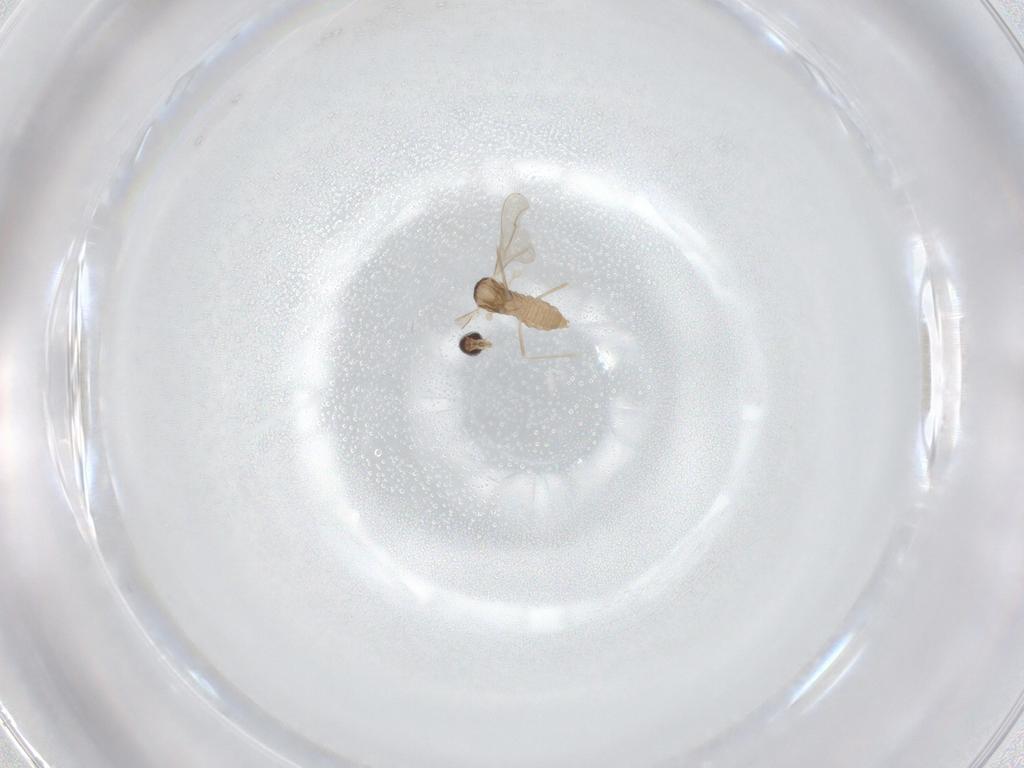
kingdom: Animalia
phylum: Arthropoda
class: Insecta
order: Diptera
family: Cecidomyiidae
